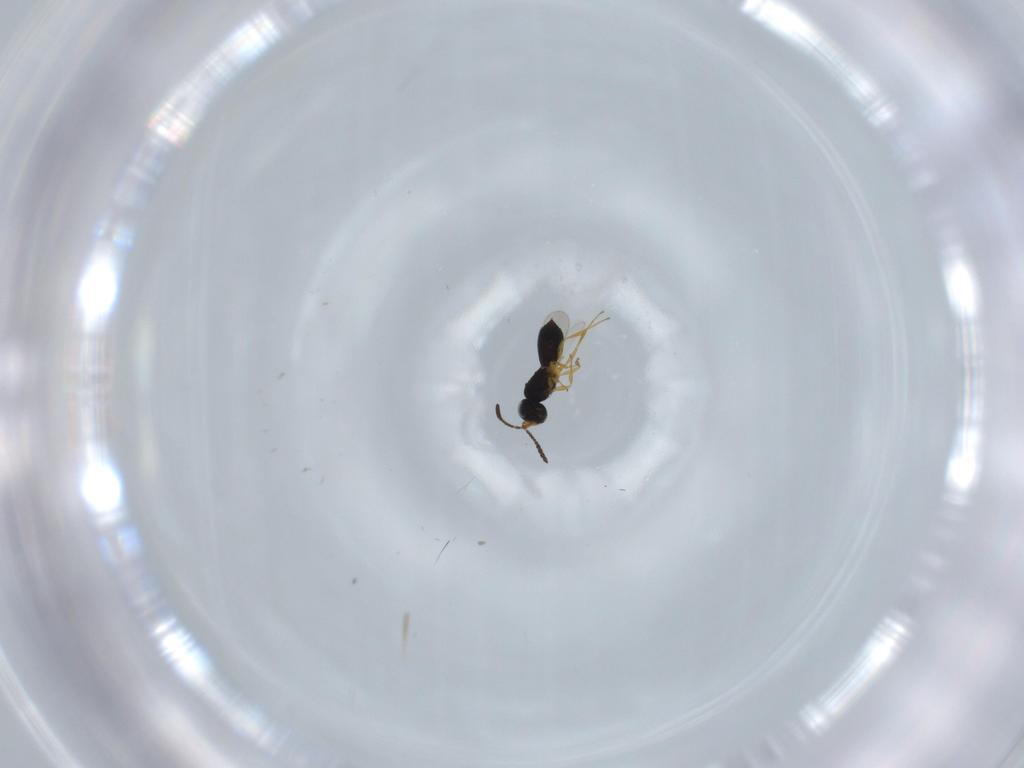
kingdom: Animalia
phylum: Arthropoda
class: Insecta
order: Hymenoptera
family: Scelionidae
